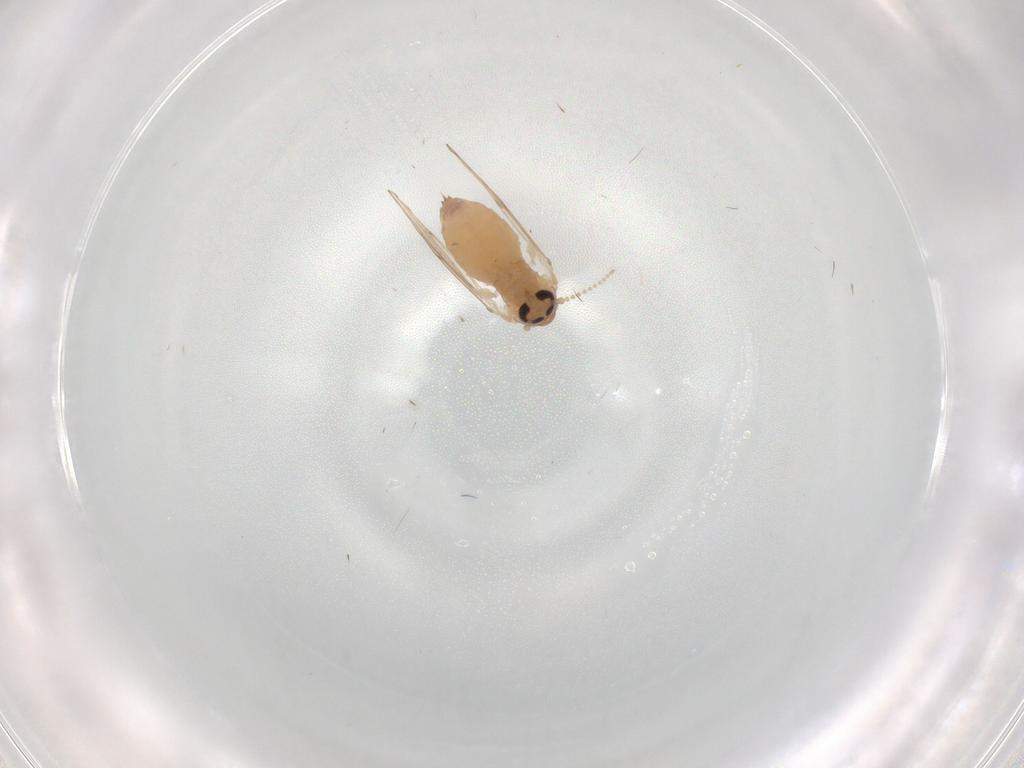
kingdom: Animalia
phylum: Arthropoda
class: Insecta
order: Diptera
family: Psychodidae
